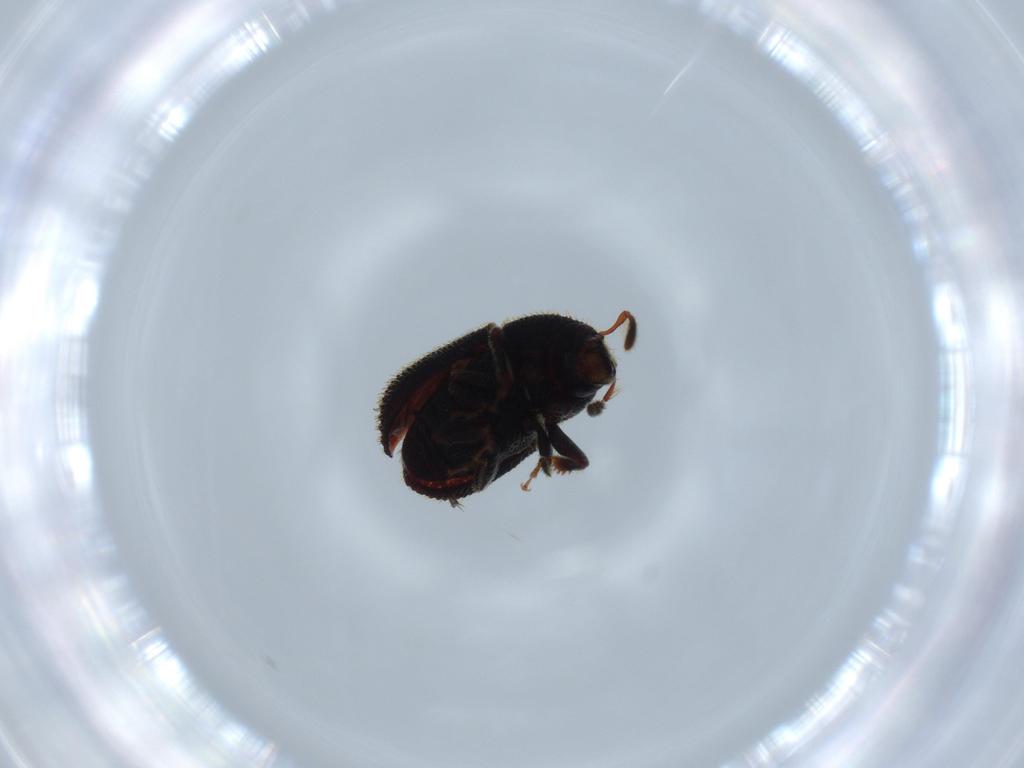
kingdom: Animalia
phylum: Arthropoda
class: Insecta
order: Coleoptera
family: Curculionidae
